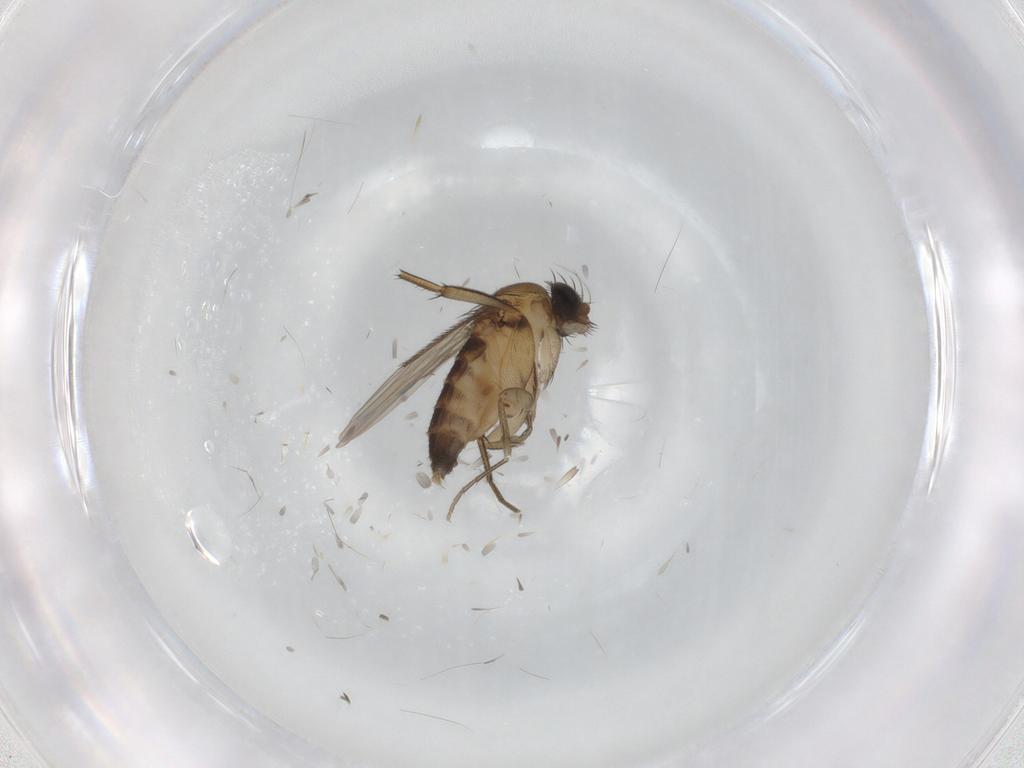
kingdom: Animalia
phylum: Arthropoda
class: Insecta
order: Diptera
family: Phoridae
